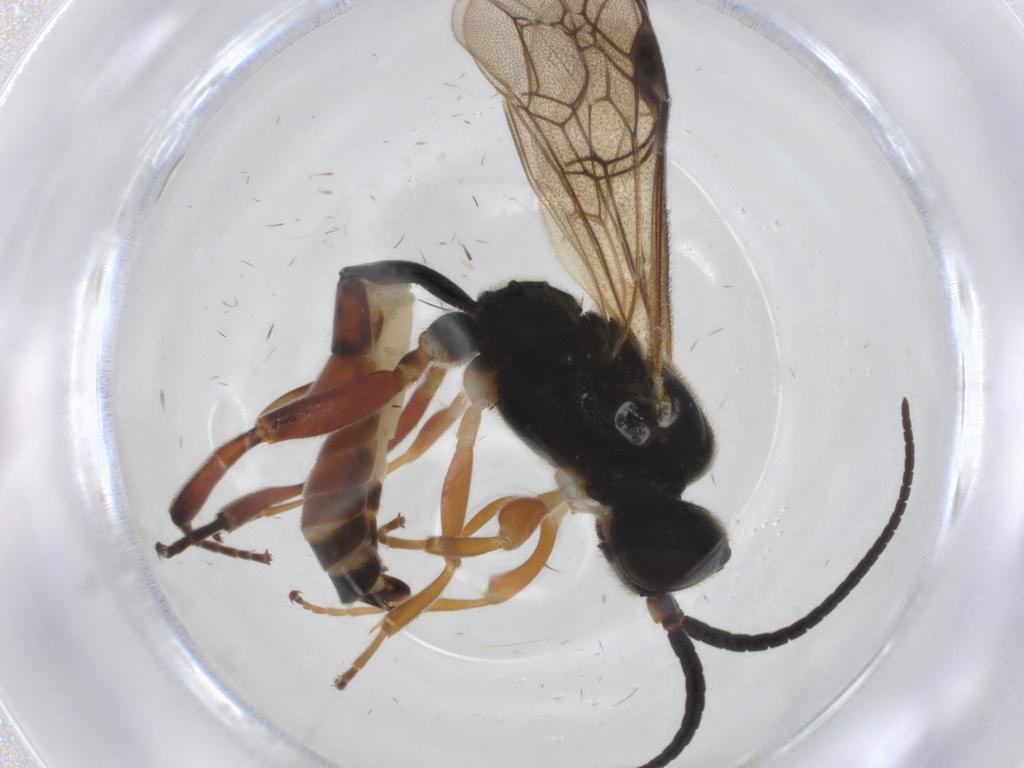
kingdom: Animalia
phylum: Arthropoda
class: Insecta
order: Hymenoptera
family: Ichneumonidae
